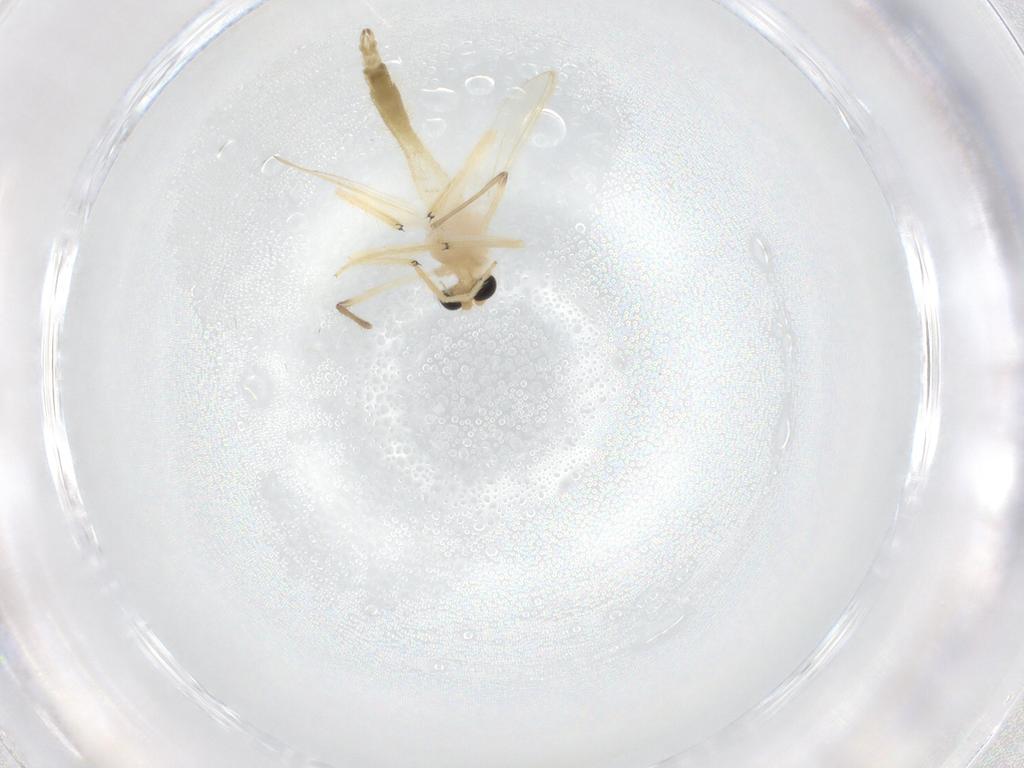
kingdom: Animalia
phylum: Arthropoda
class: Insecta
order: Diptera
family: Chironomidae
